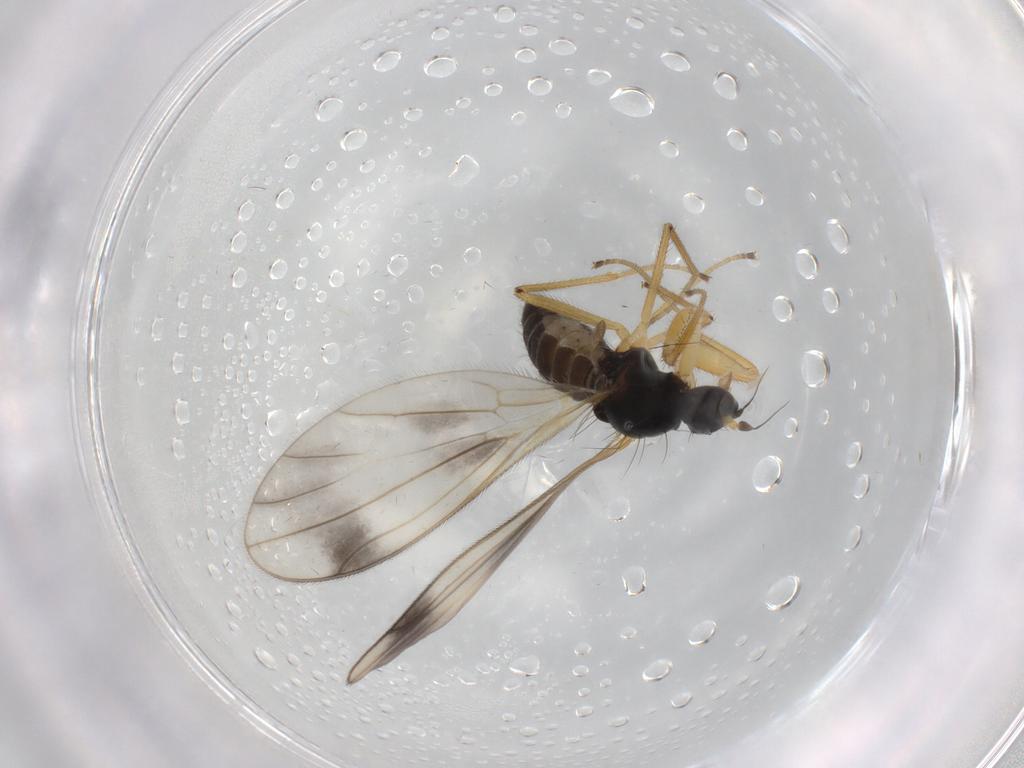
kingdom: Animalia
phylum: Arthropoda
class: Insecta
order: Diptera
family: Empididae
